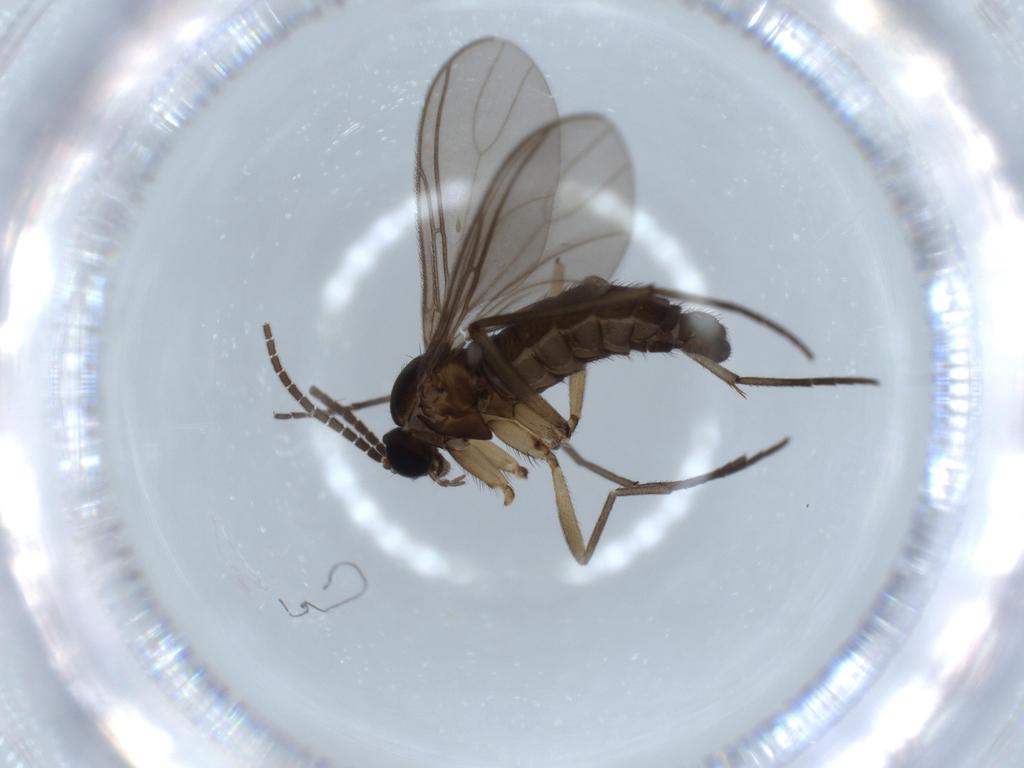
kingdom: Animalia
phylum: Arthropoda
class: Insecta
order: Diptera
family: Sciaridae
